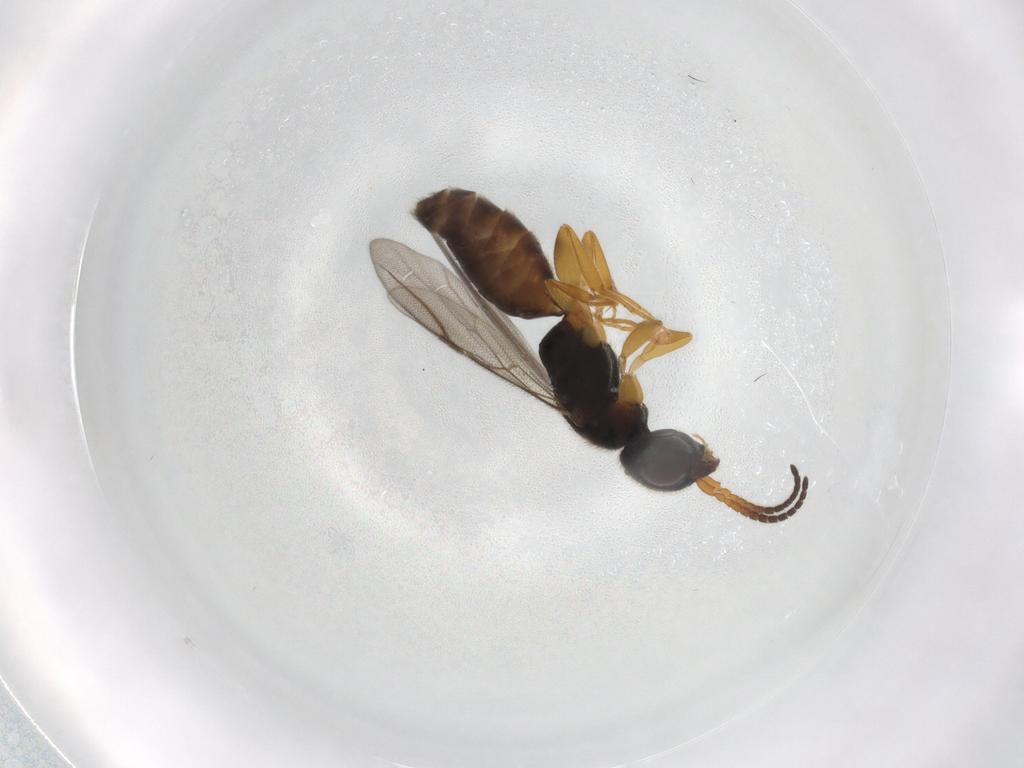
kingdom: Animalia
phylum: Arthropoda
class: Insecta
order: Hymenoptera
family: Bethylidae
